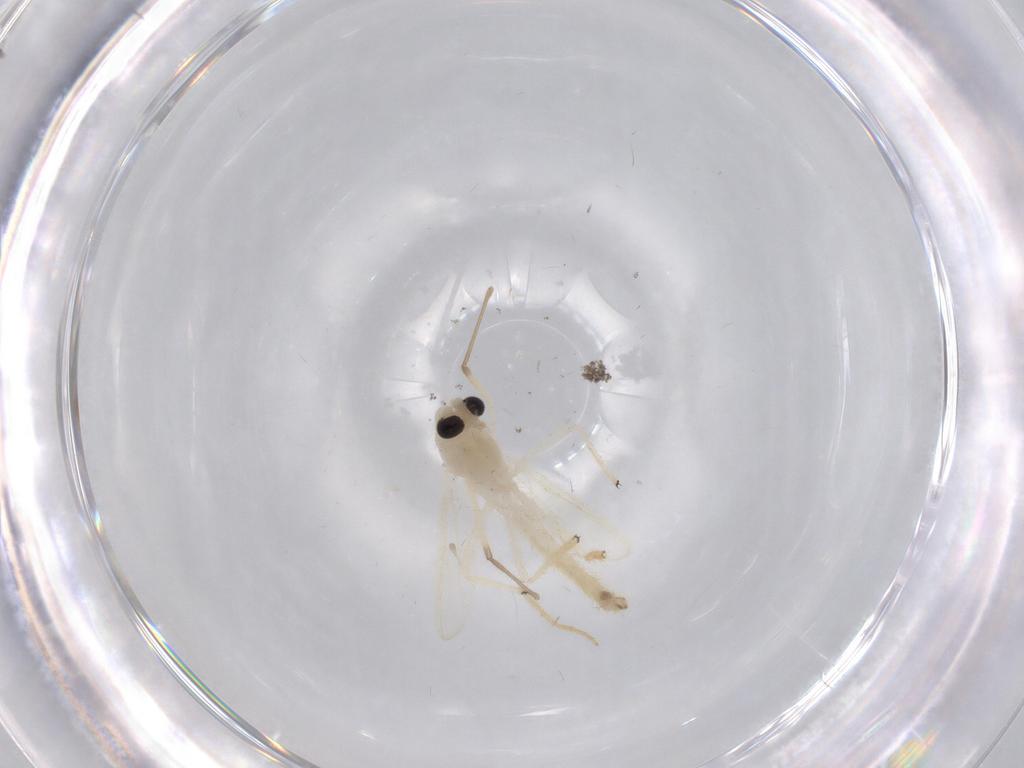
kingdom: Animalia
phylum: Arthropoda
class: Insecta
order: Diptera
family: Chironomidae
